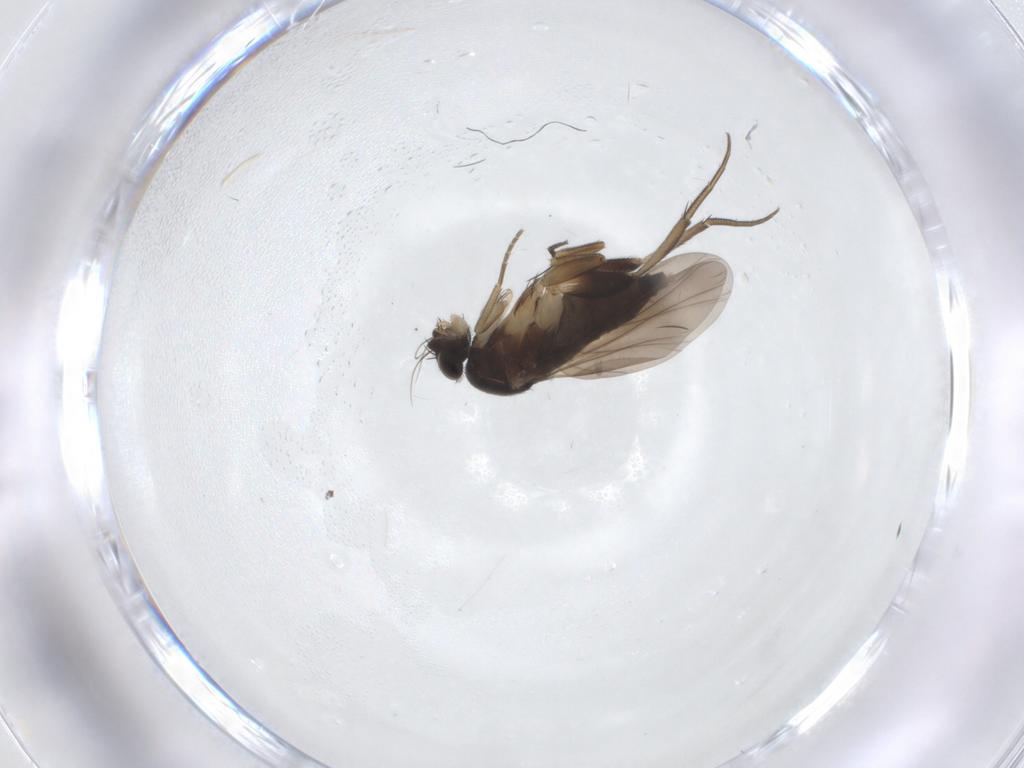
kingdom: Animalia
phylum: Arthropoda
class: Insecta
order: Diptera
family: Phoridae
